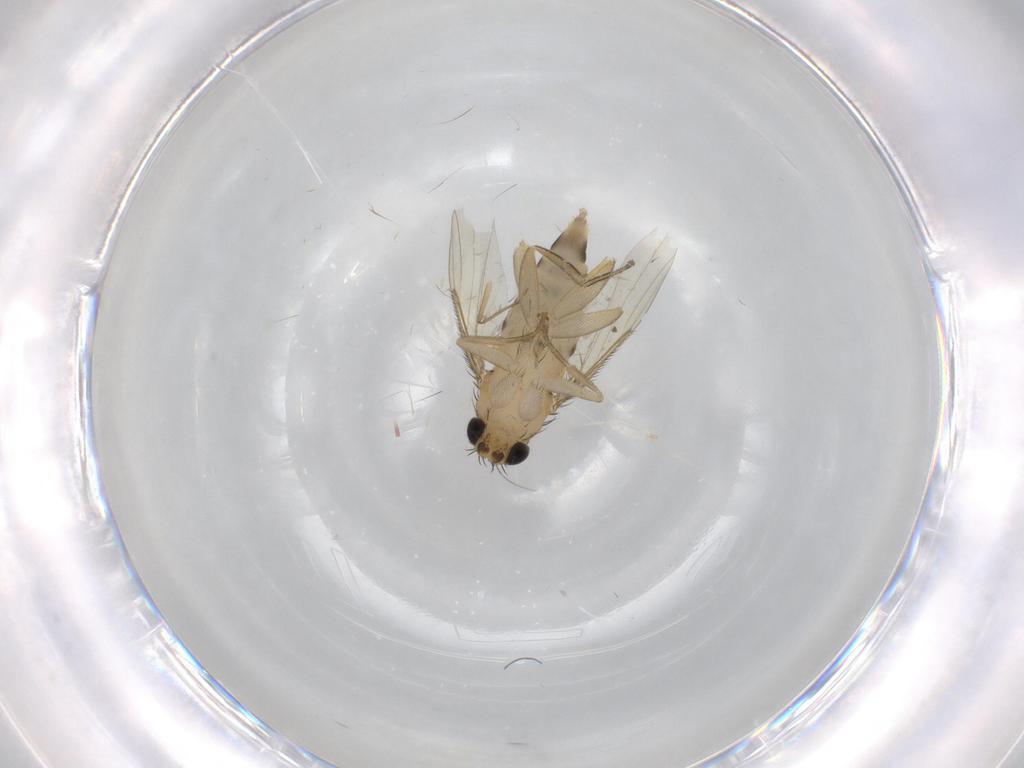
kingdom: Animalia
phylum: Arthropoda
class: Insecta
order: Diptera
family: Phoridae
